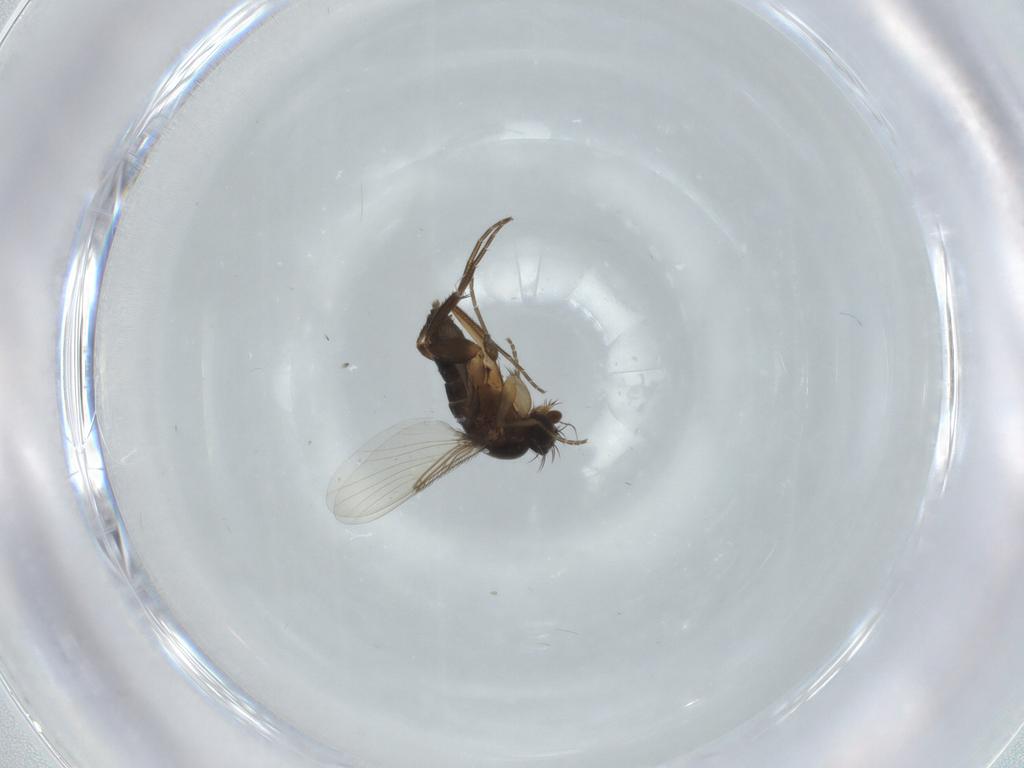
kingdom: Animalia
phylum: Arthropoda
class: Insecta
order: Diptera
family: Phoridae
